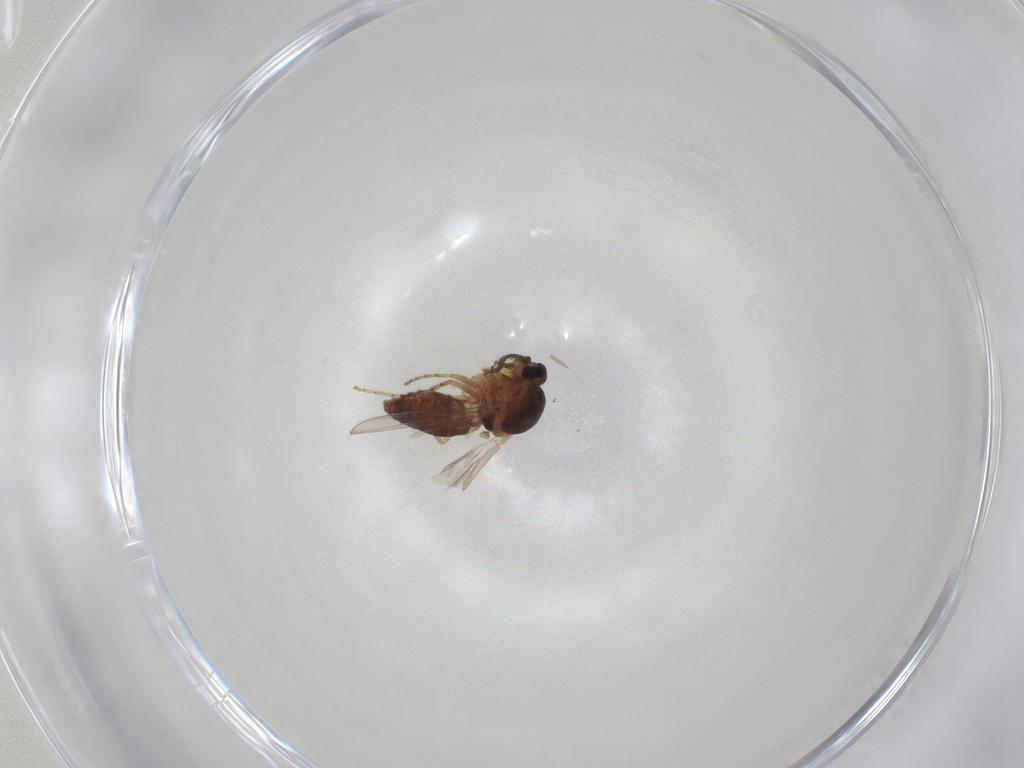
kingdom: Animalia
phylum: Arthropoda
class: Insecta
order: Diptera
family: Ceratopogonidae
